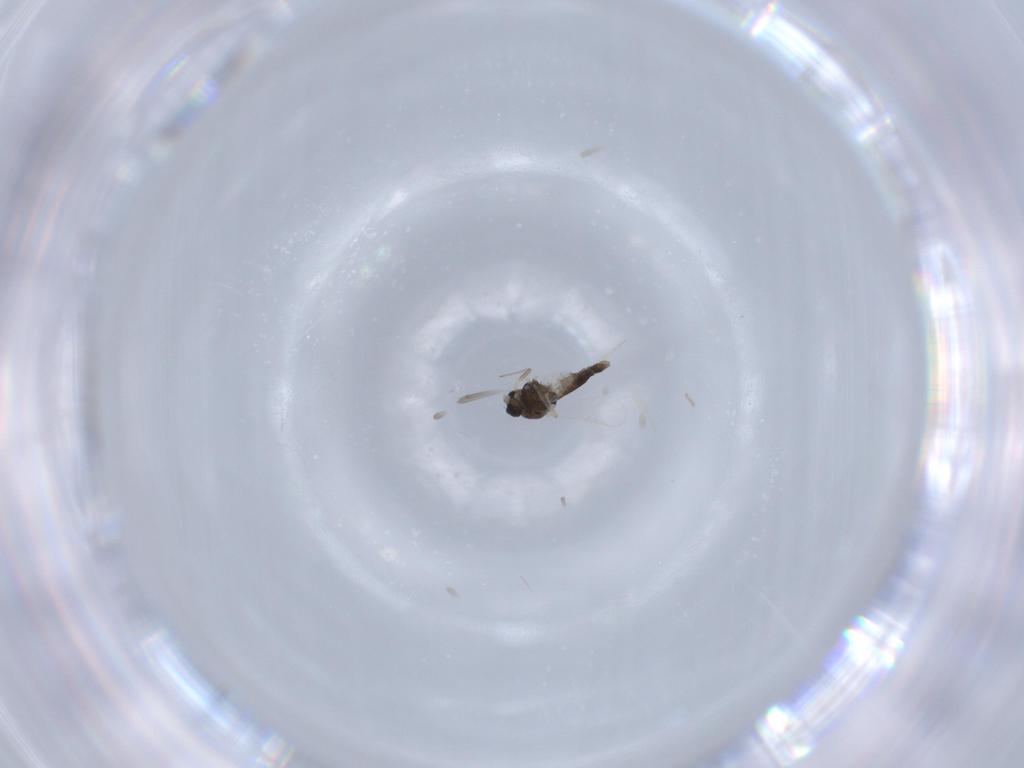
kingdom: Animalia
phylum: Arthropoda
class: Insecta
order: Diptera
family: Chironomidae
